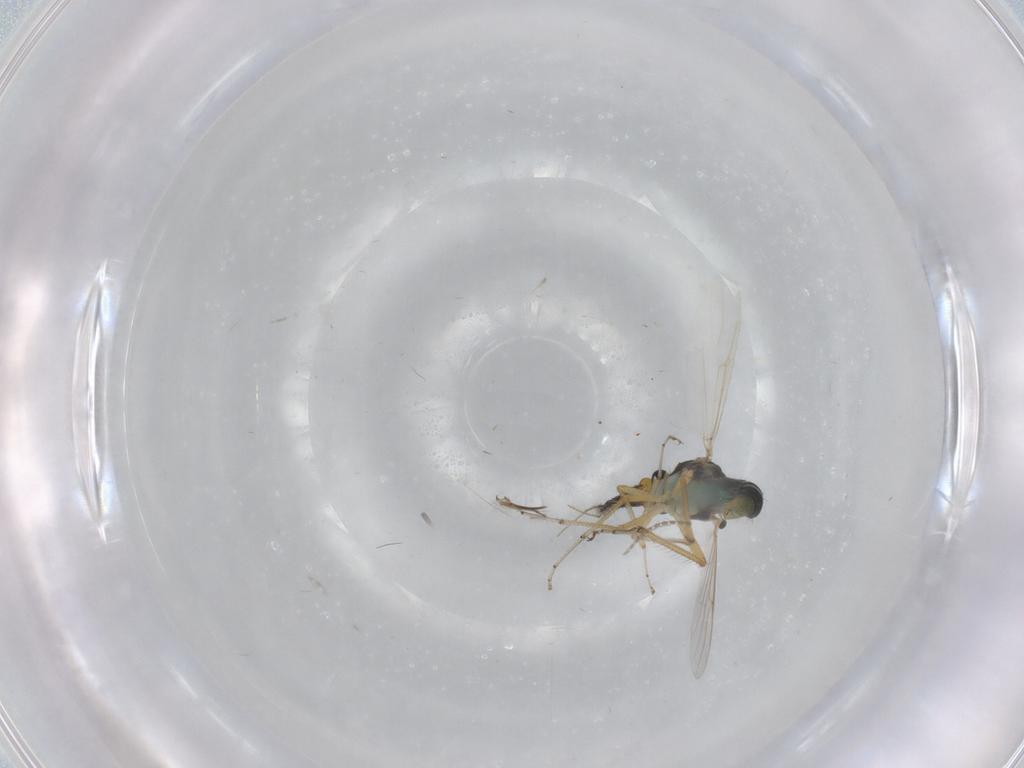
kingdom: Animalia
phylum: Arthropoda
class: Insecta
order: Diptera
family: Ceratopogonidae
